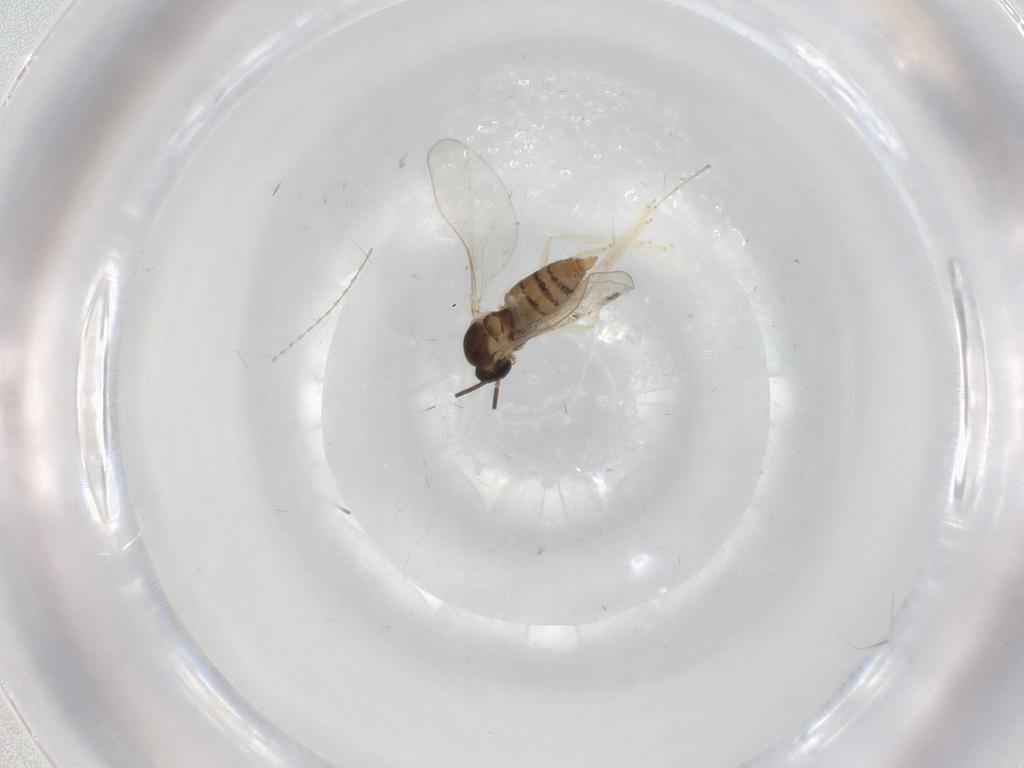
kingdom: Animalia
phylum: Arthropoda
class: Insecta
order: Diptera
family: Cecidomyiidae
